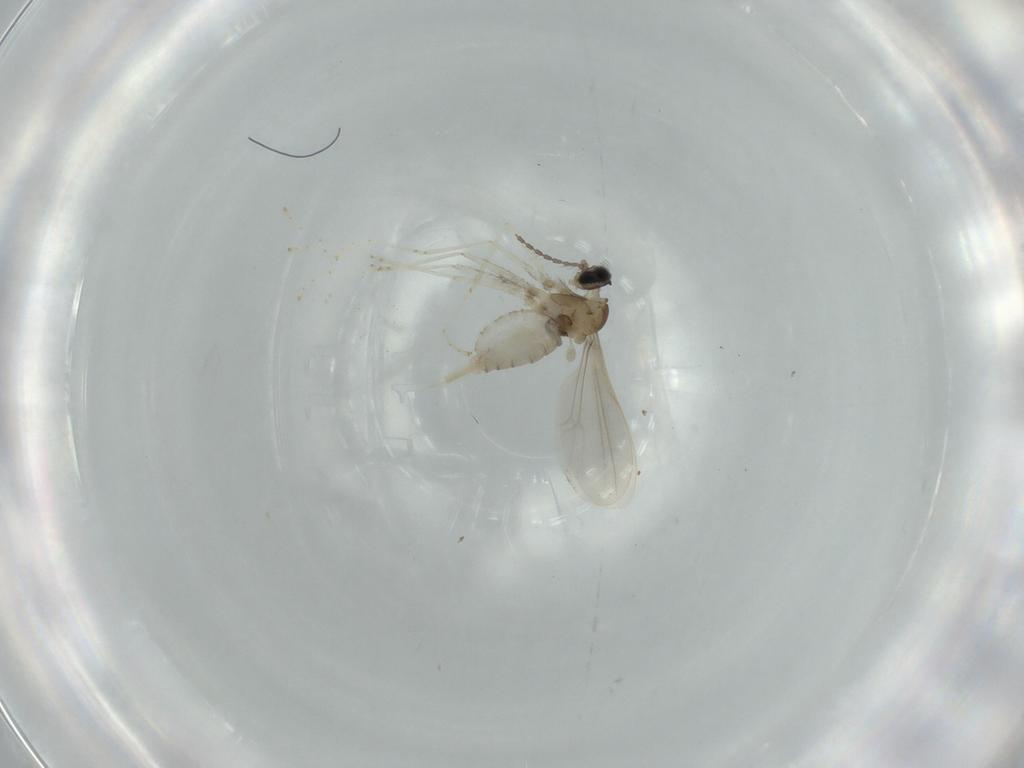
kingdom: Animalia
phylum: Arthropoda
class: Insecta
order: Diptera
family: Cecidomyiidae
